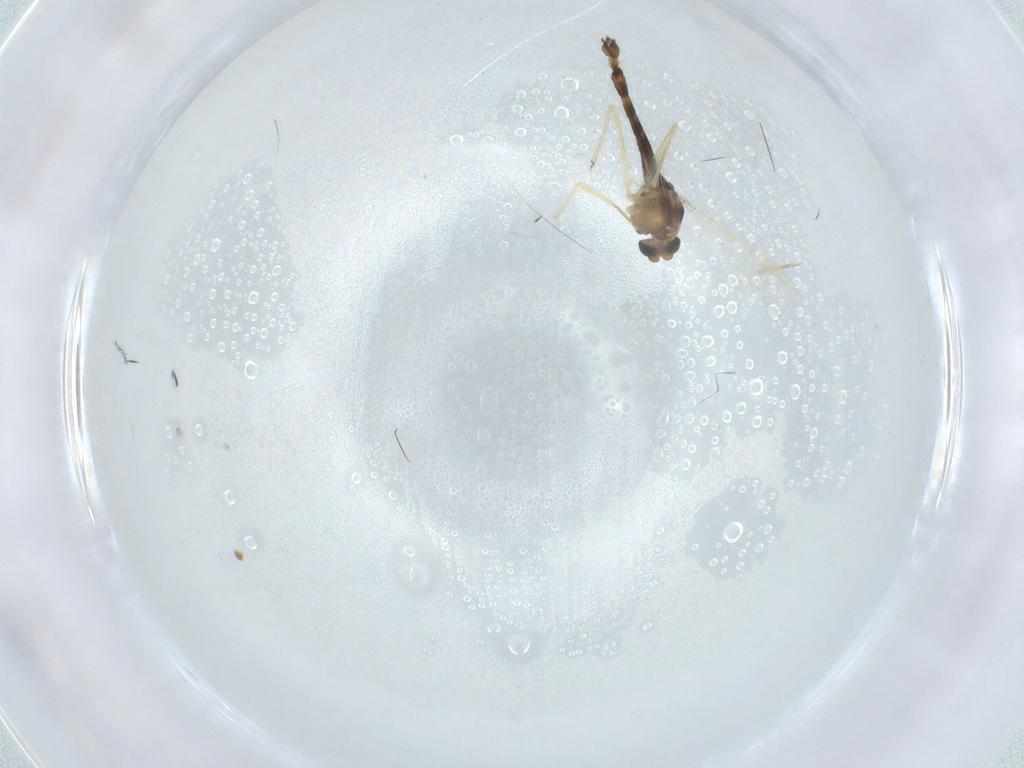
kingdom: Animalia
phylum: Arthropoda
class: Insecta
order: Diptera
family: Chironomidae
